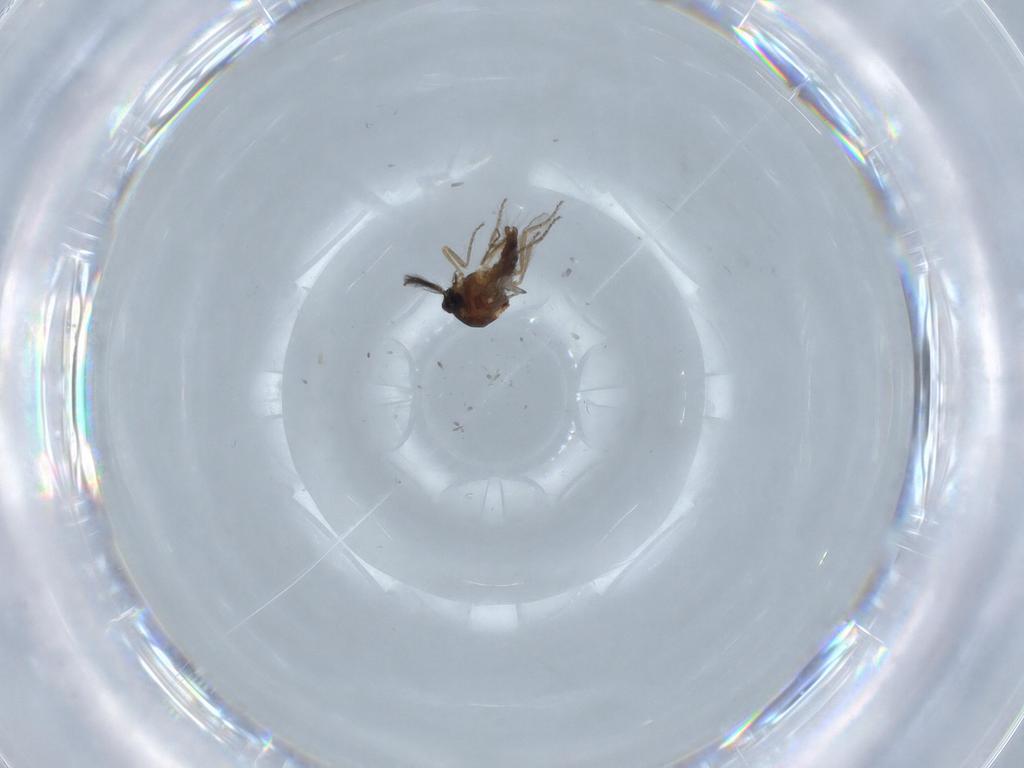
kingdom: Animalia
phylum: Arthropoda
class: Insecta
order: Diptera
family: Ceratopogonidae
